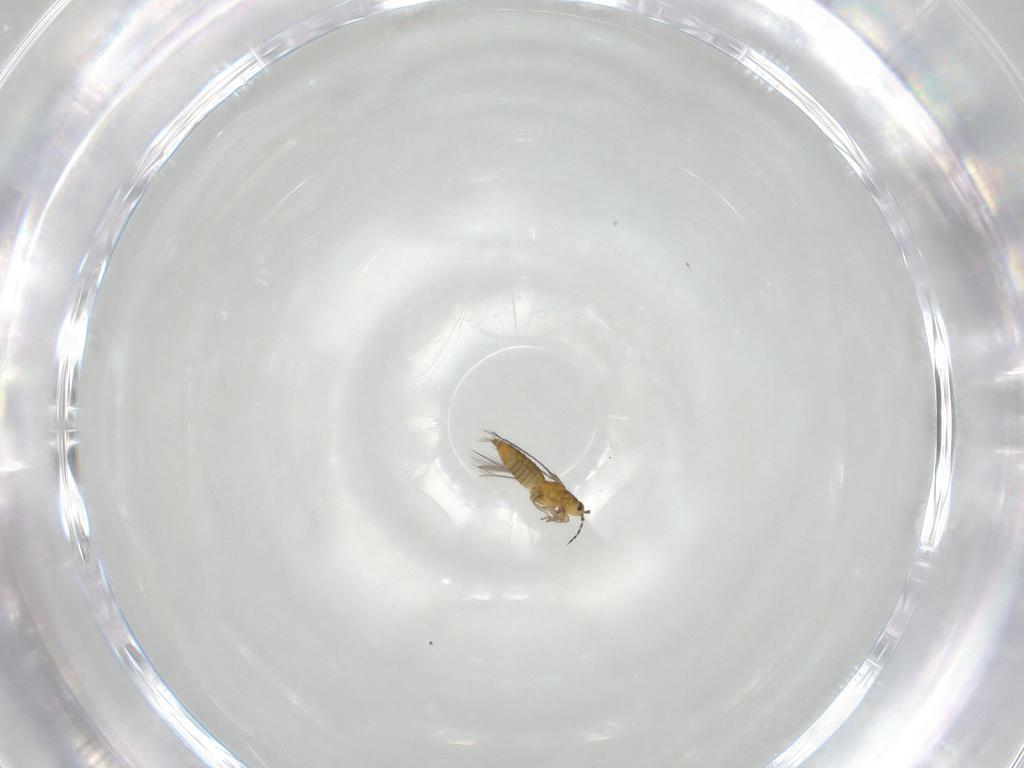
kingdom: Animalia
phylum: Arthropoda
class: Insecta
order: Thysanoptera
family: Thripidae
